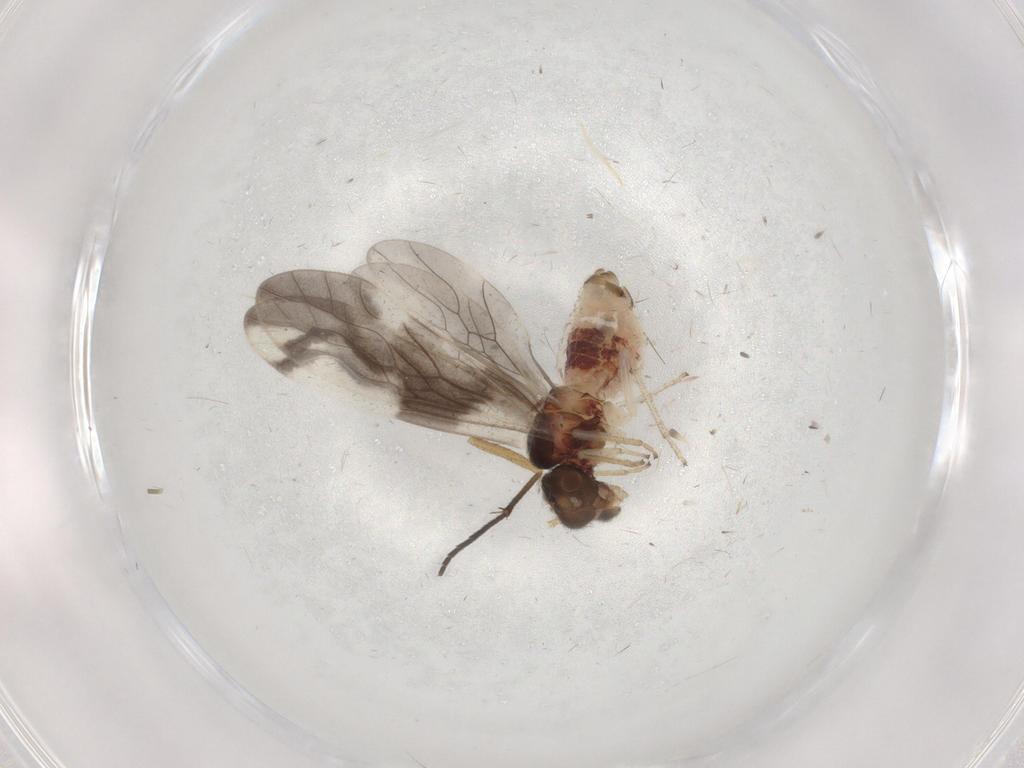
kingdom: Animalia
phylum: Arthropoda
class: Insecta
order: Psocodea
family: Caeciliusidae
